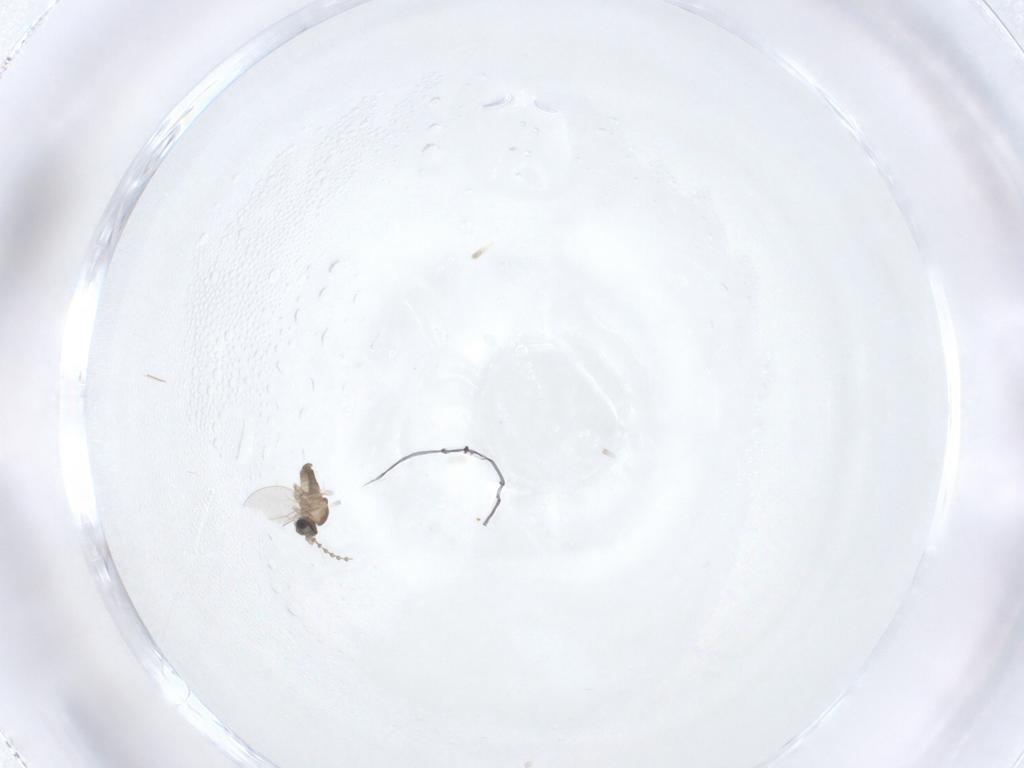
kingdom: Animalia
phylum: Arthropoda
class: Insecta
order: Diptera
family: Cecidomyiidae
